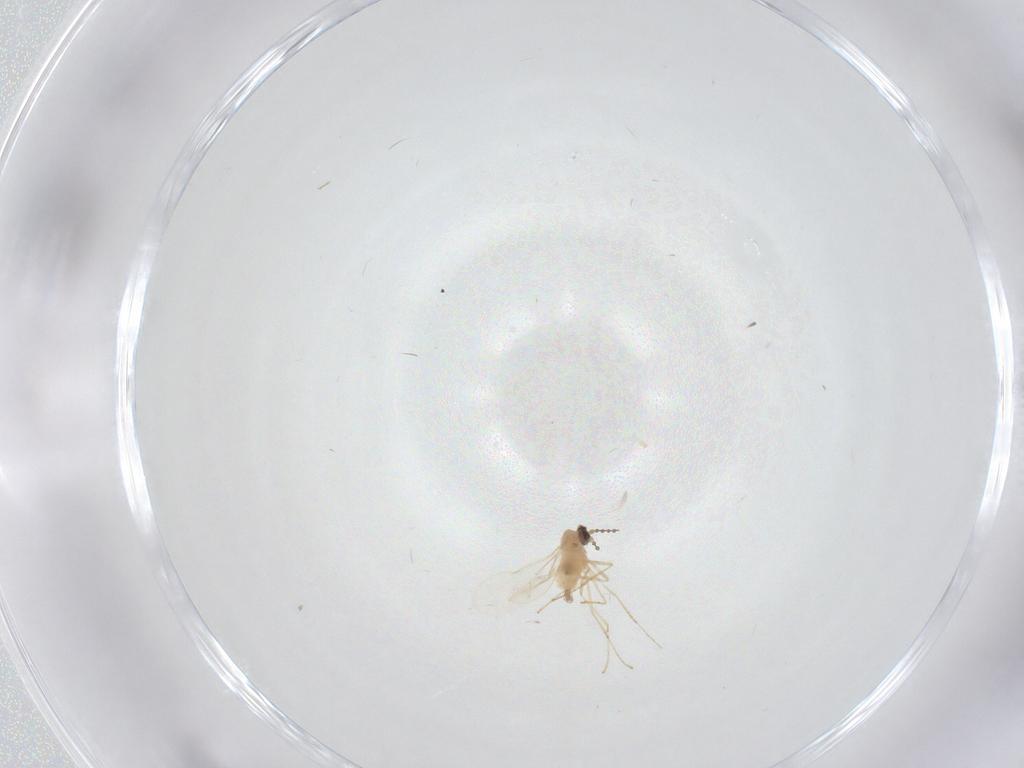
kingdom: Animalia
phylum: Arthropoda
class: Insecta
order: Diptera
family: Cecidomyiidae
